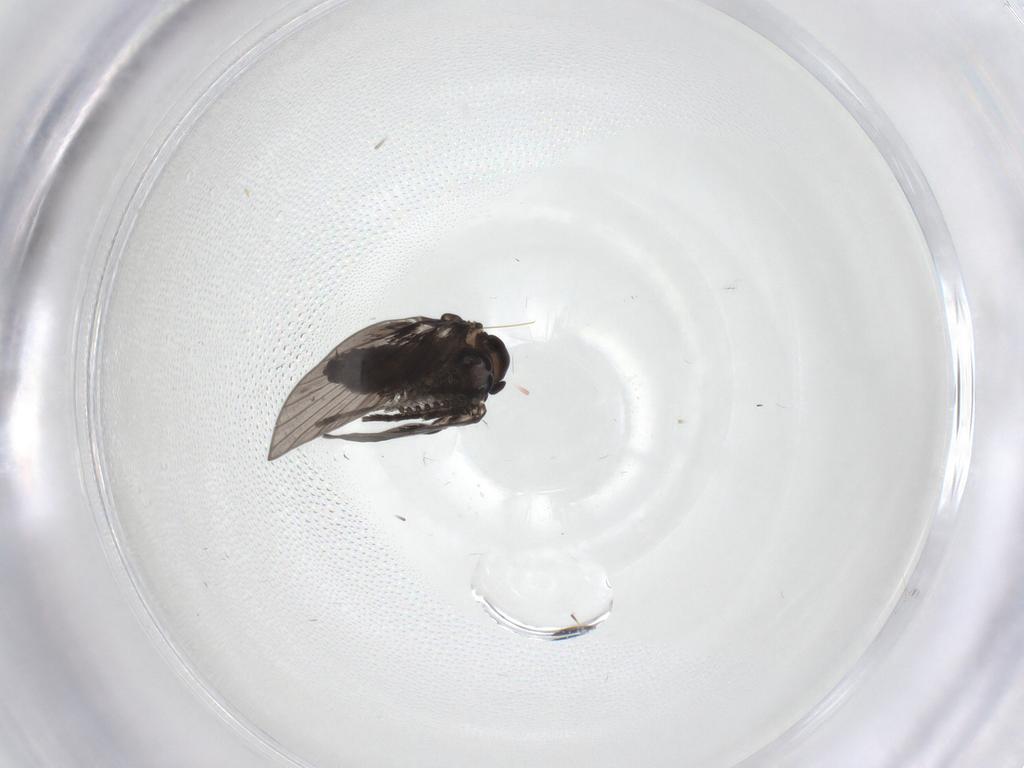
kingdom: Animalia
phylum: Arthropoda
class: Insecta
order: Diptera
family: Psychodidae
